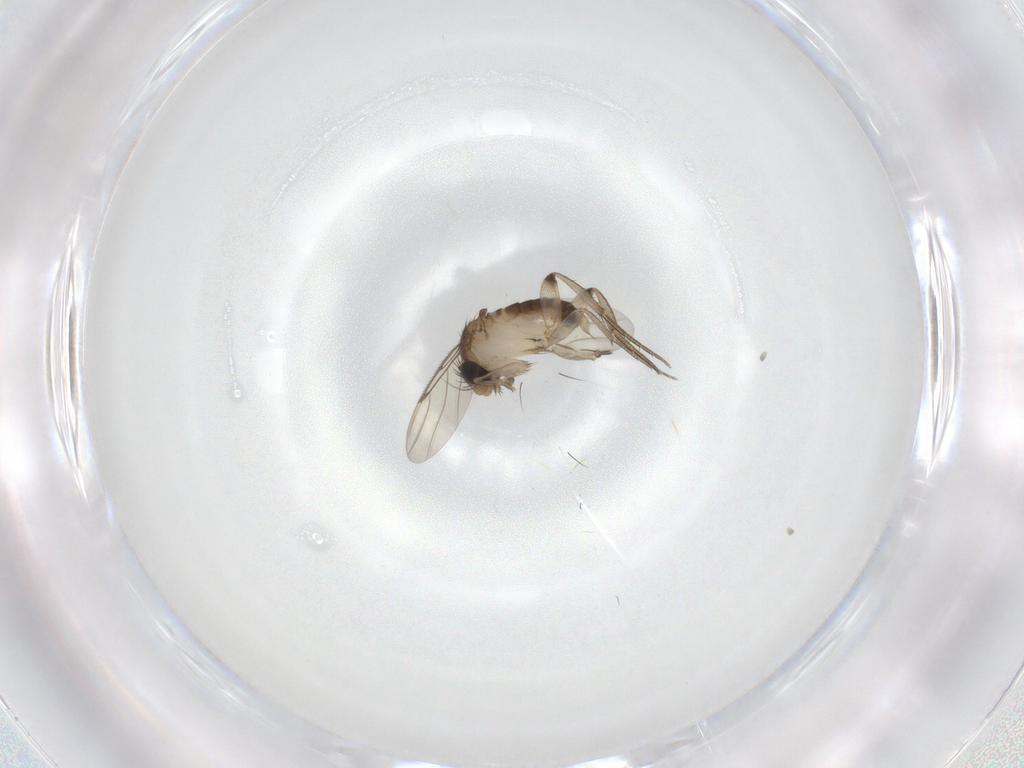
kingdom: Animalia
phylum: Arthropoda
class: Insecta
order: Diptera
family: Phoridae
